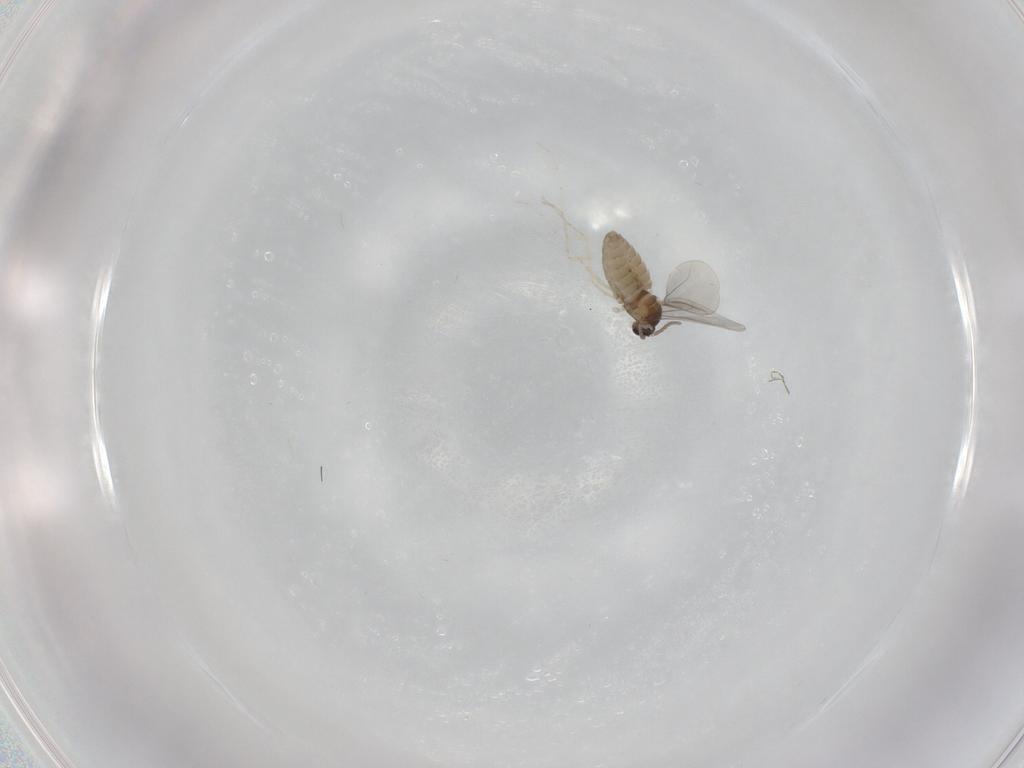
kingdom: Animalia
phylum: Arthropoda
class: Insecta
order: Diptera
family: Cecidomyiidae
